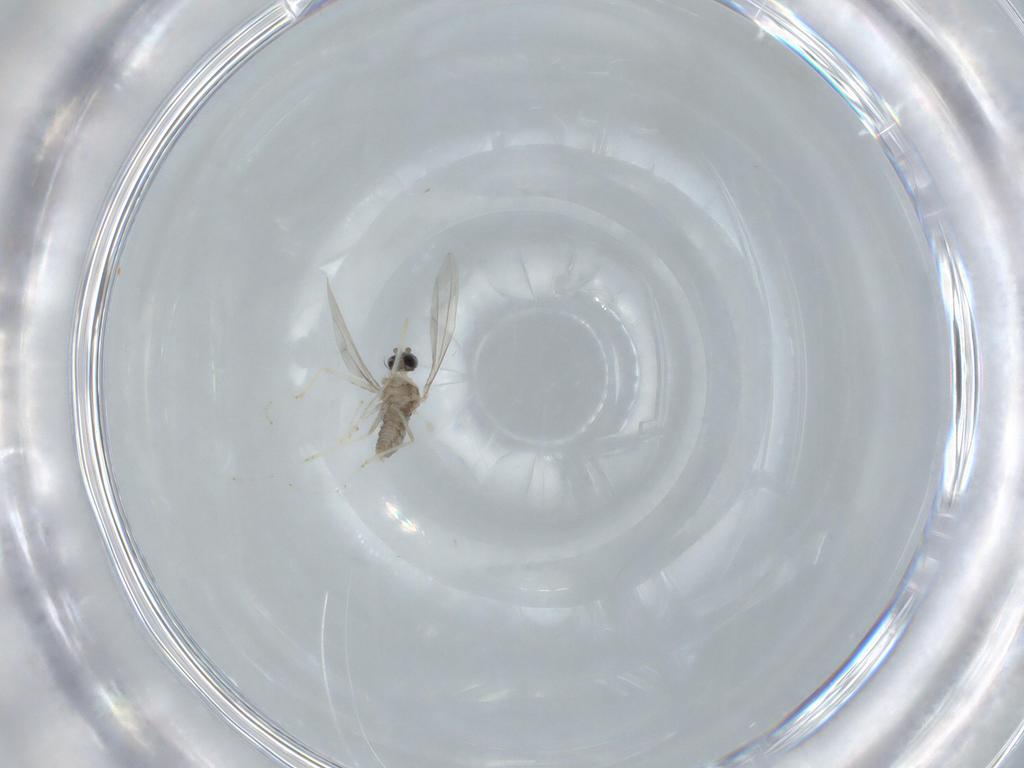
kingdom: Animalia
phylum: Arthropoda
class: Insecta
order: Diptera
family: Cecidomyiidae
